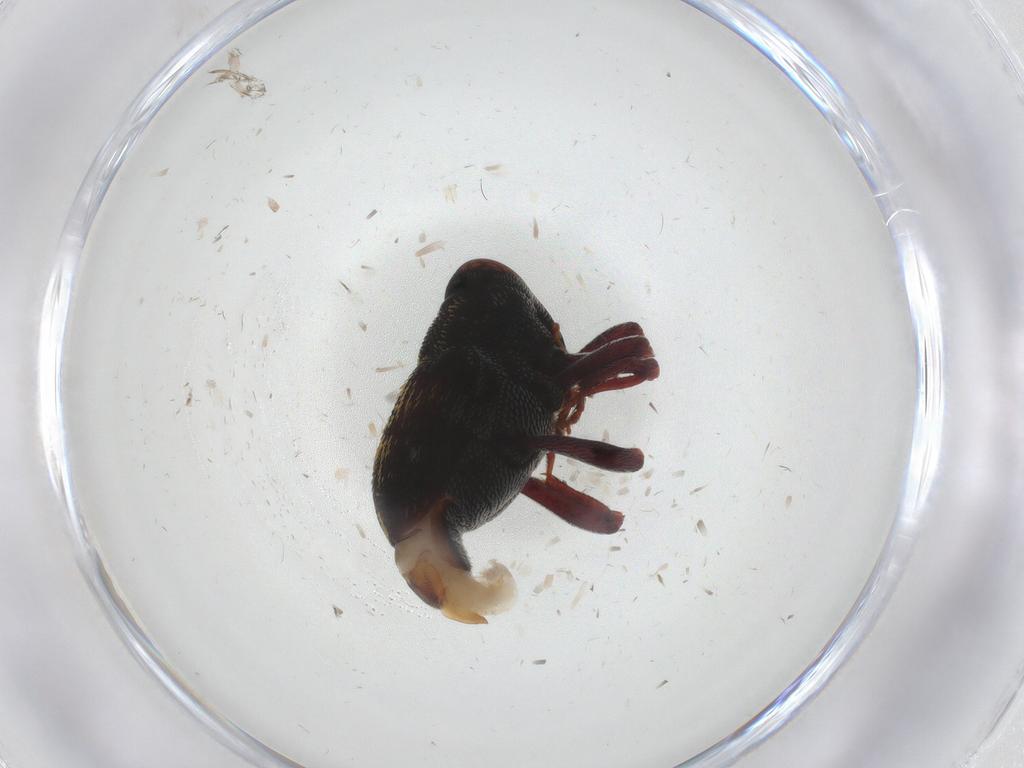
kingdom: Animalia
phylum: Arthropoda
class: Insecta
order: Coleoptera
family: Curculionidae
